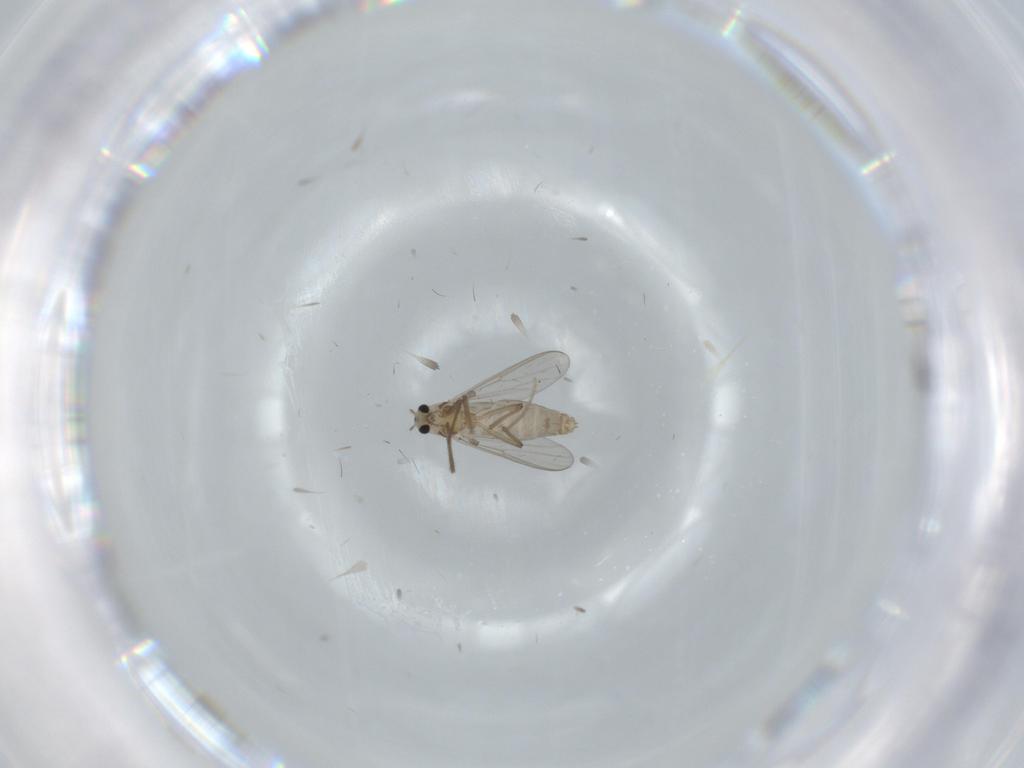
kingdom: Animalia
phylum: Arthropoda
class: Insecta
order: Diptera
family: Chironomidae
